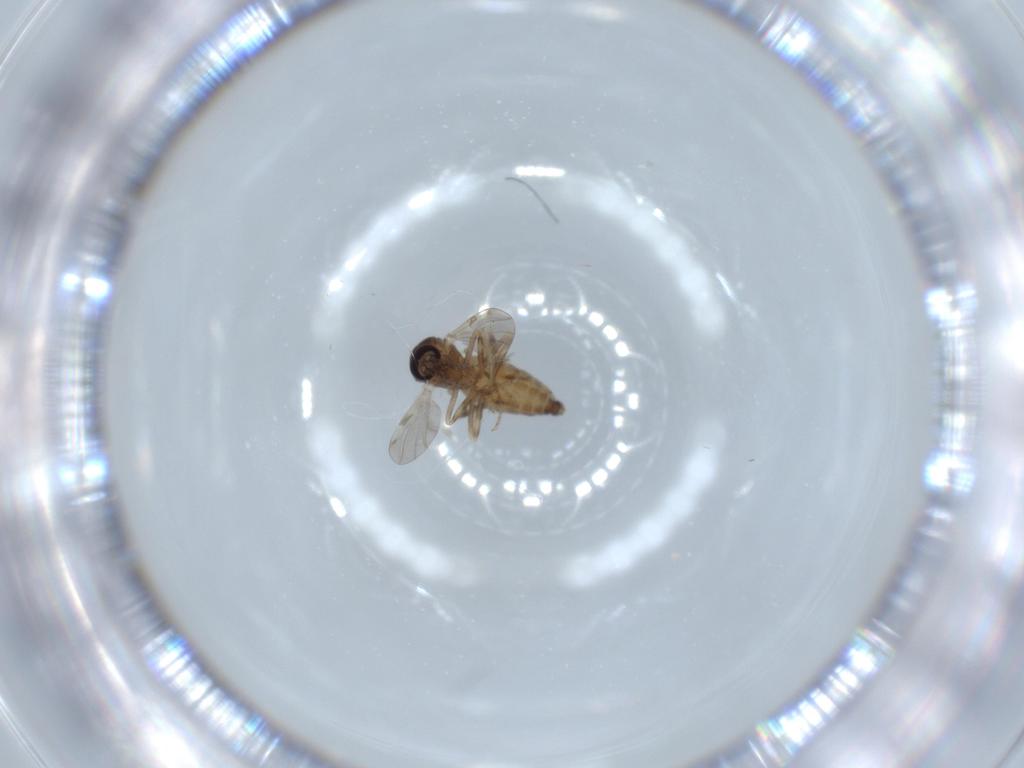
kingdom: Animalia
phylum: Arthropoda
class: Insecta
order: Diptera
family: Ceratopogonidae
